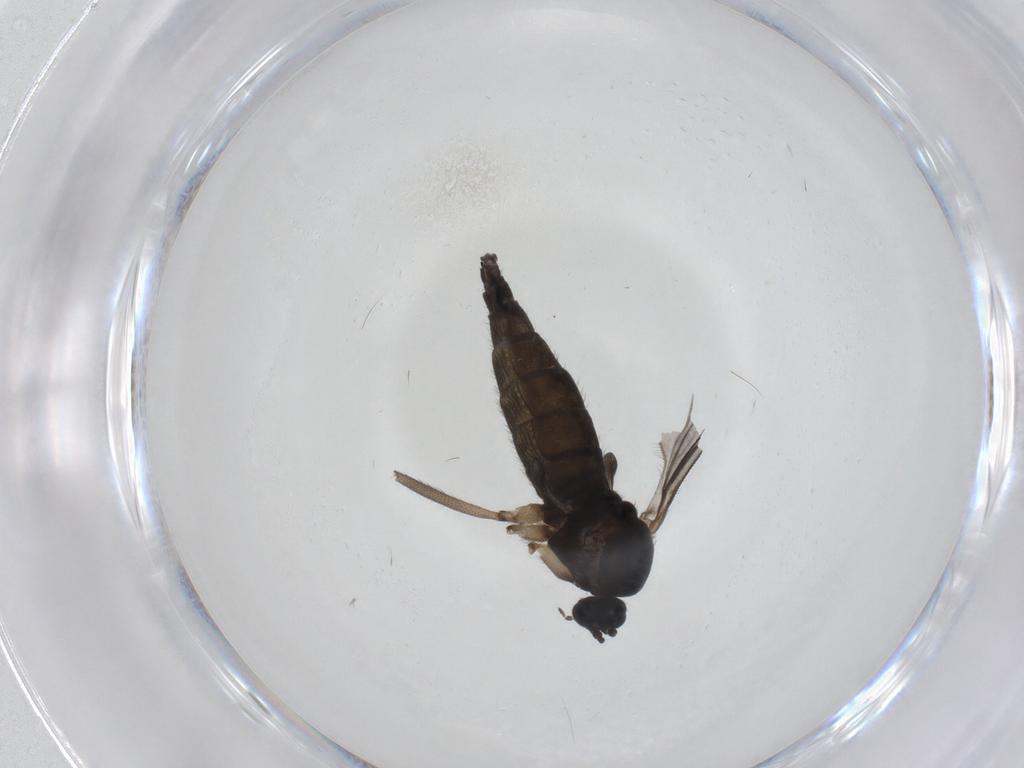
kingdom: Animalia
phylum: Arthropoda
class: Insecta
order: Diptera
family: Sciaridae
